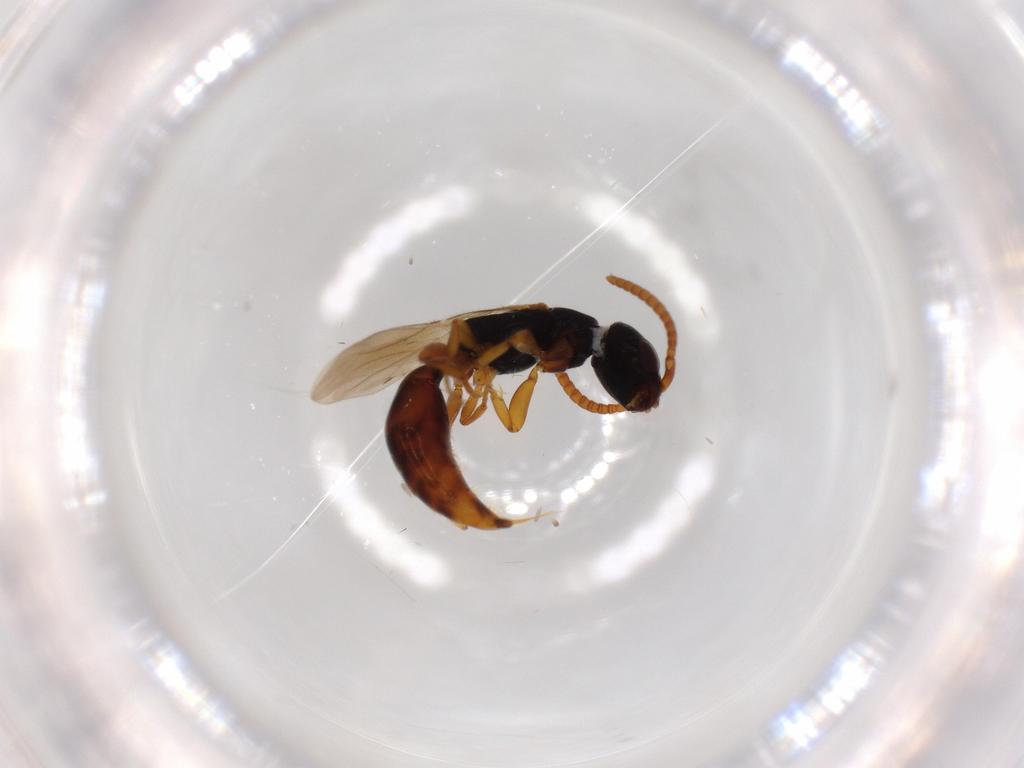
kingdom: Animalia
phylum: Arthropoda
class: Insecta
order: Hymenoptera
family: Bethylidae
